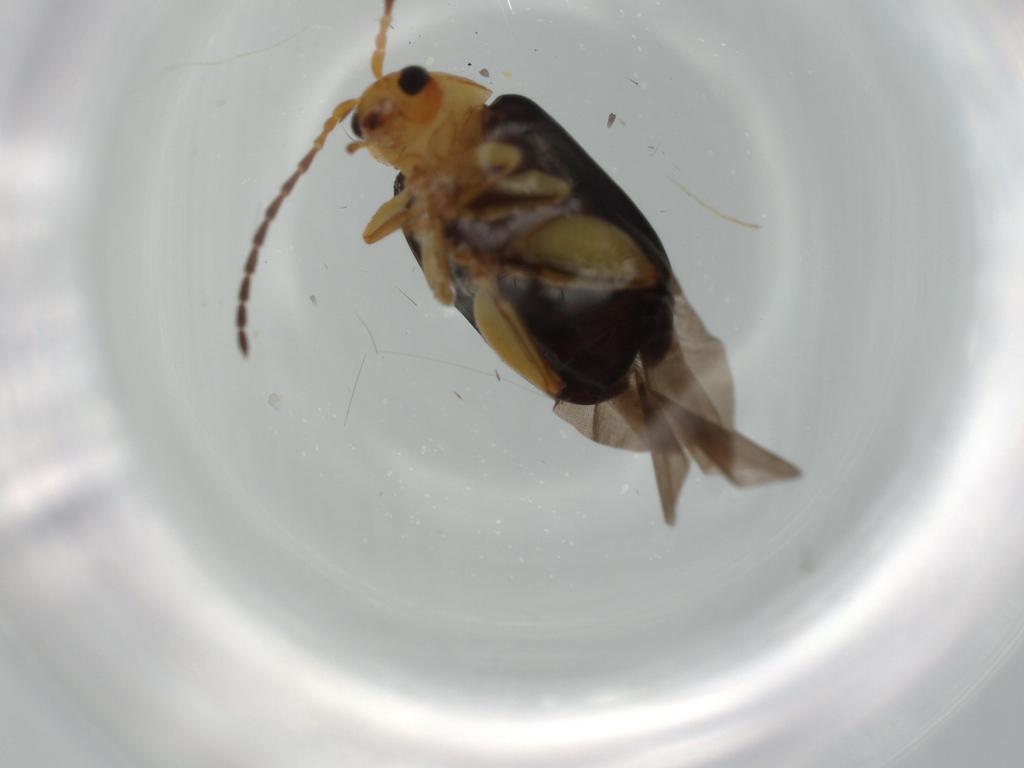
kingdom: Animalia
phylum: Arthropoda
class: Insecta
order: Coleoptera
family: Chrysomelidae
